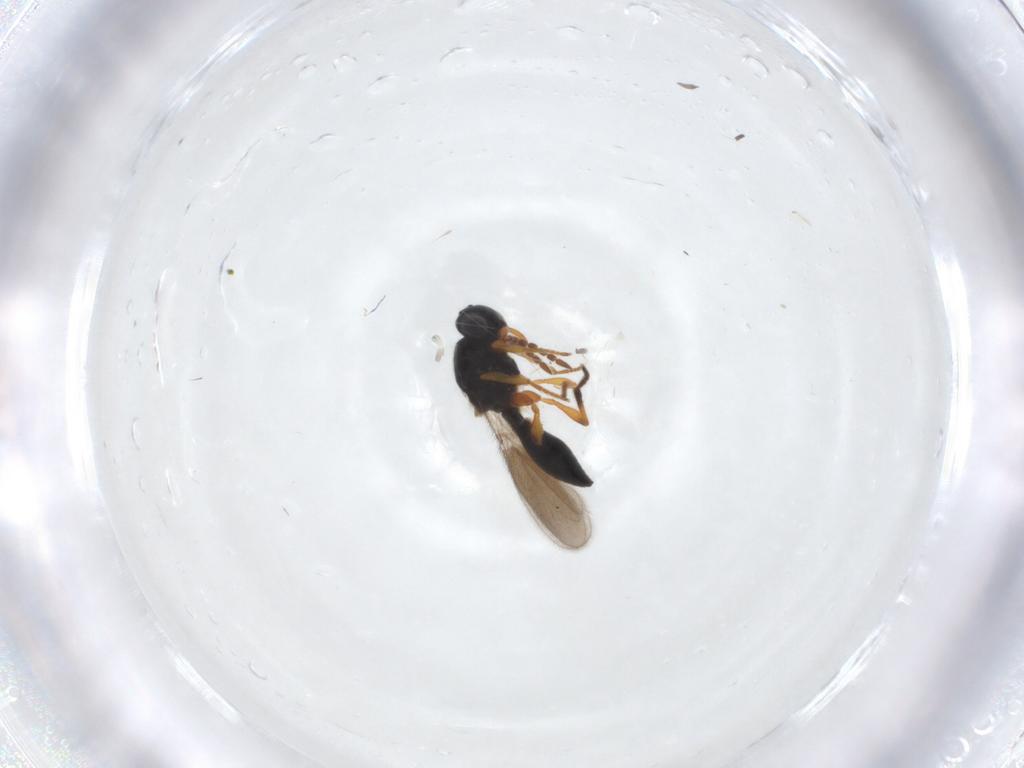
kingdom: Animalia
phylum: Arthropoda
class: Insecta
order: Hymenoptera
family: Platygastridae
